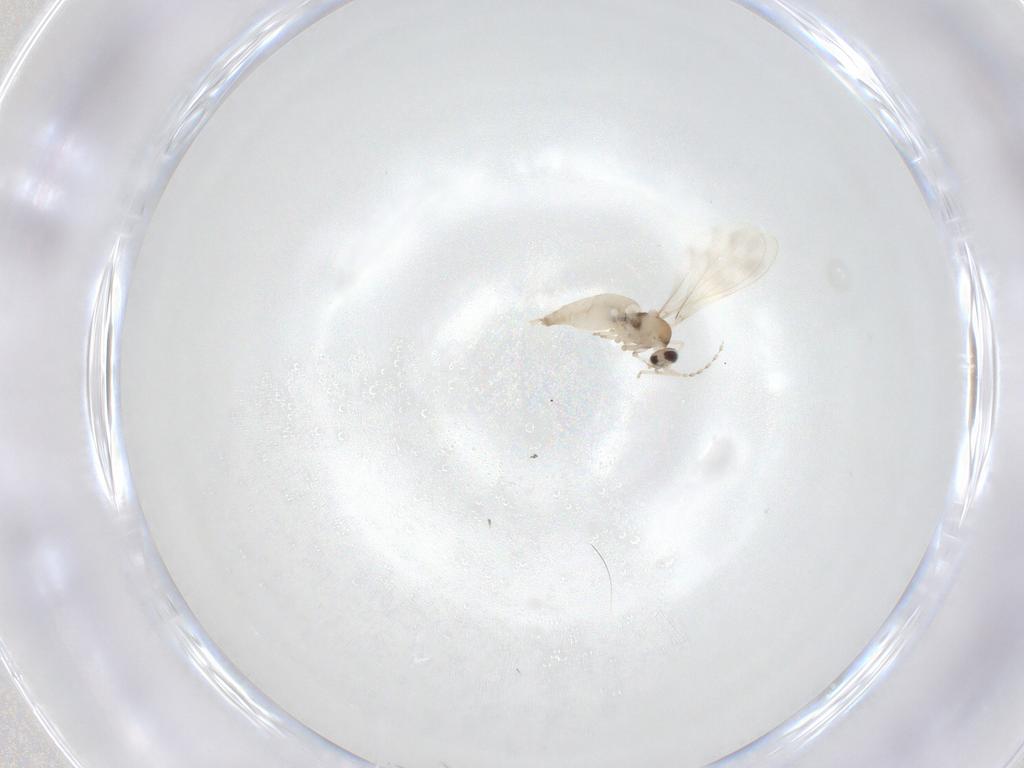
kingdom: Animalia
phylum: Arthropoda
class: Insecta
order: Diptera
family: Cecidomyiidae
